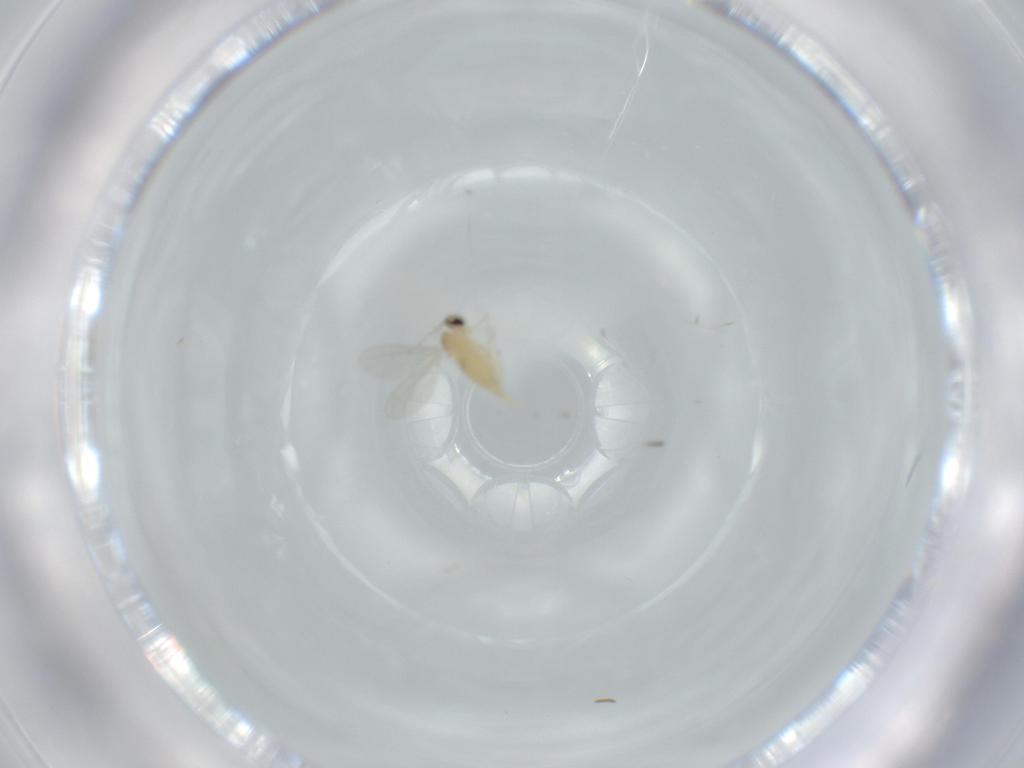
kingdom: Animalia
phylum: Arthropoda
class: Insecta
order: Diptera
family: Cecidomyiidae
